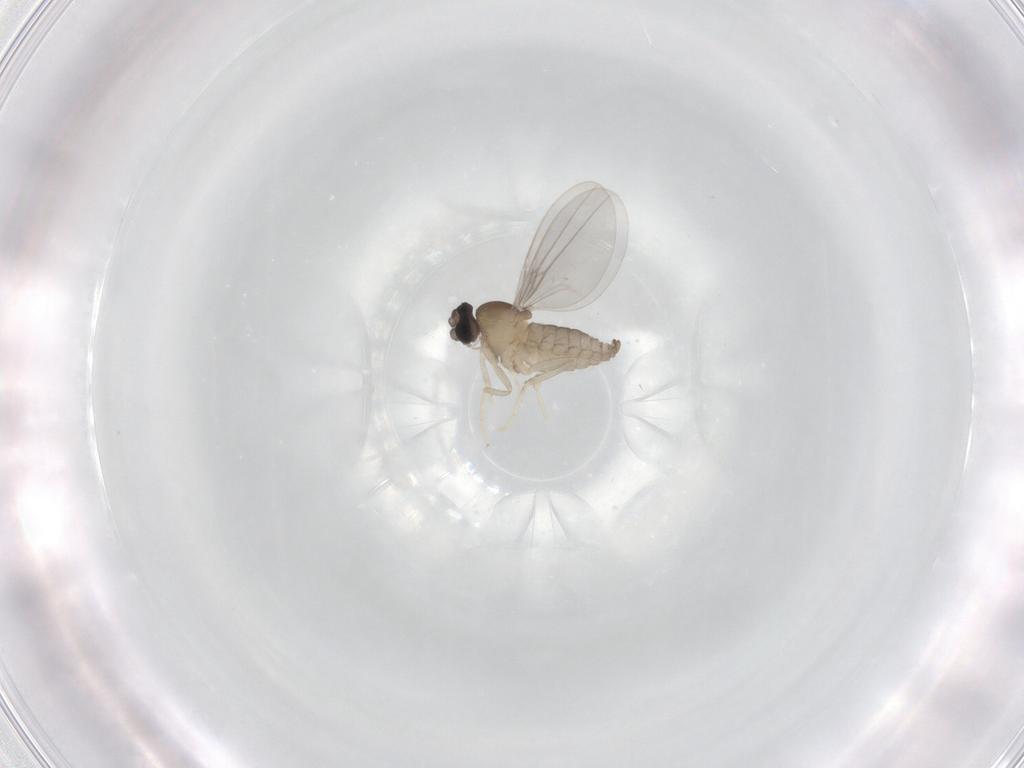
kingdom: Animalia
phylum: Arthropoda
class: Insecta
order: Diptera
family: Cecidomyiidae
